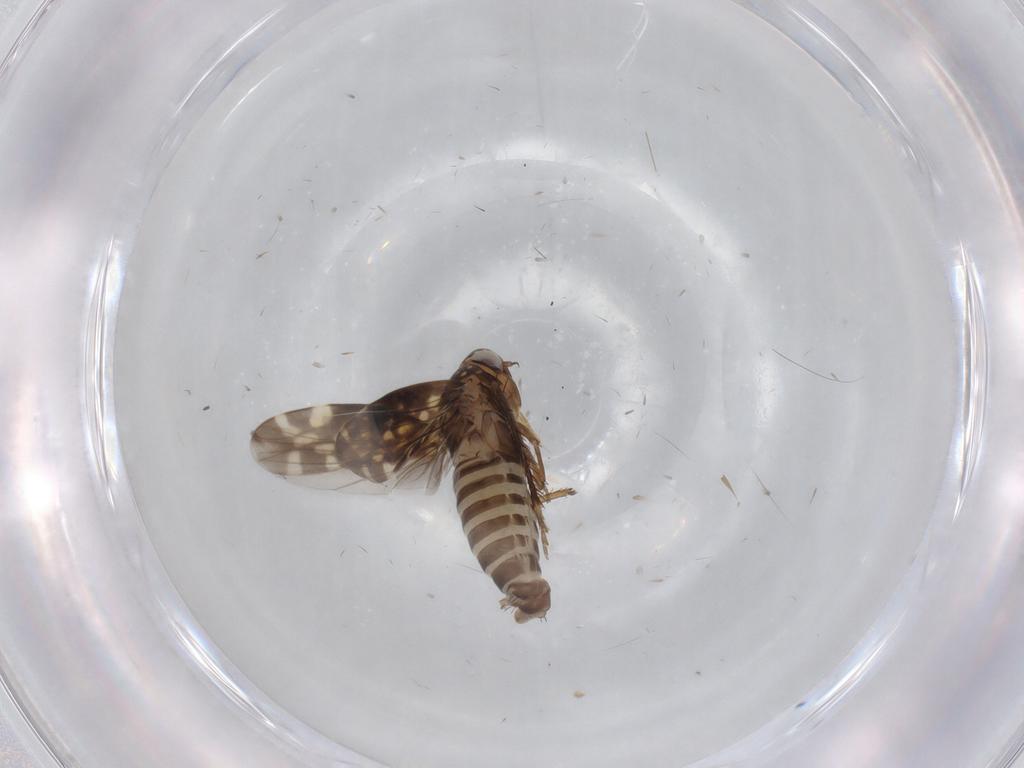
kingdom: Animalia
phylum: Arthropoda
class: Insecta
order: Hemiptera
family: Cicadellidae
